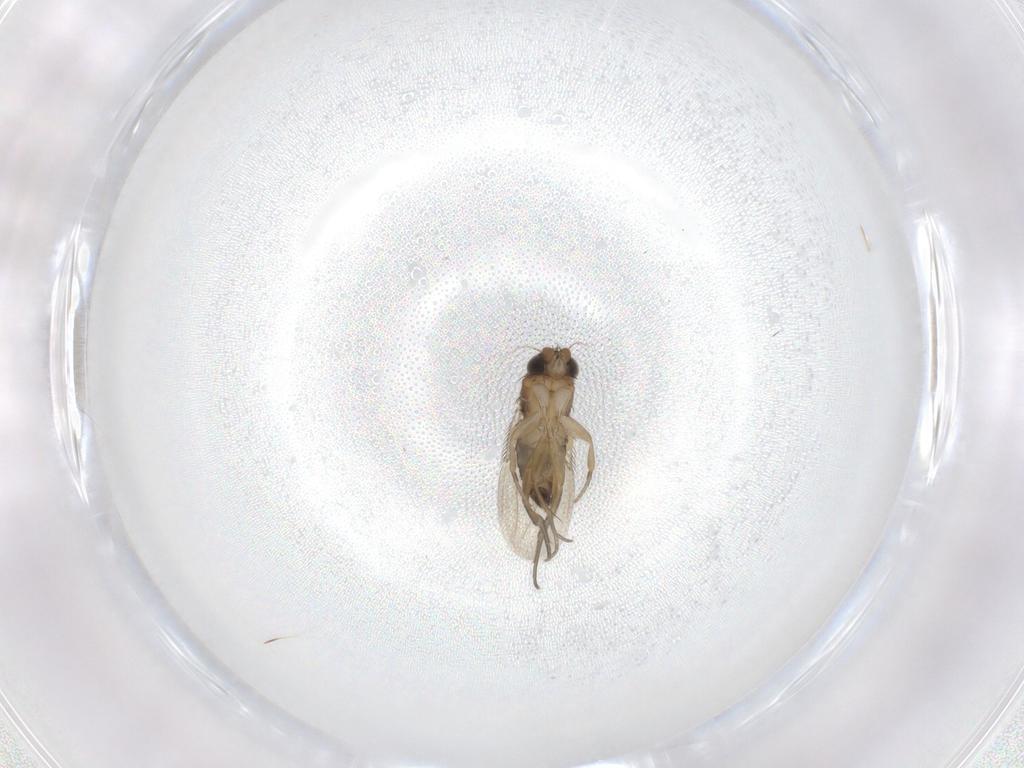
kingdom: Animalia
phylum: Arthropoda
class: Insecta
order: Diptera
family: Phoridae
